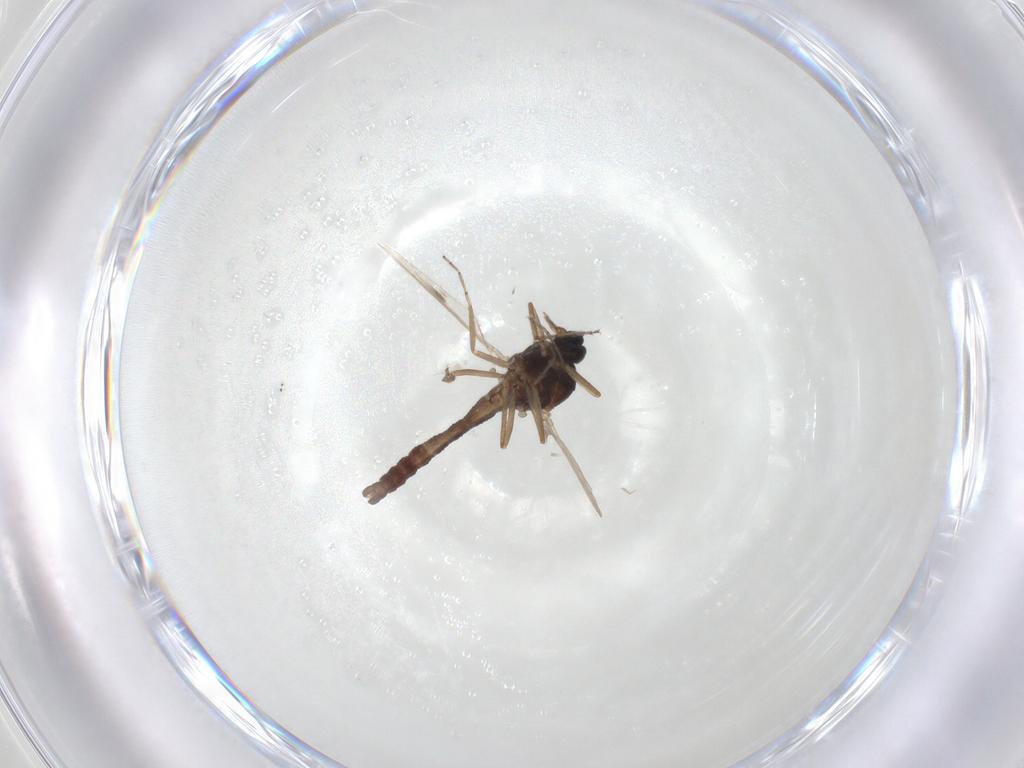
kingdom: Animalia
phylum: Arthropoda
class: Insecta
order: Diptera
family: Ceratopogonidae
